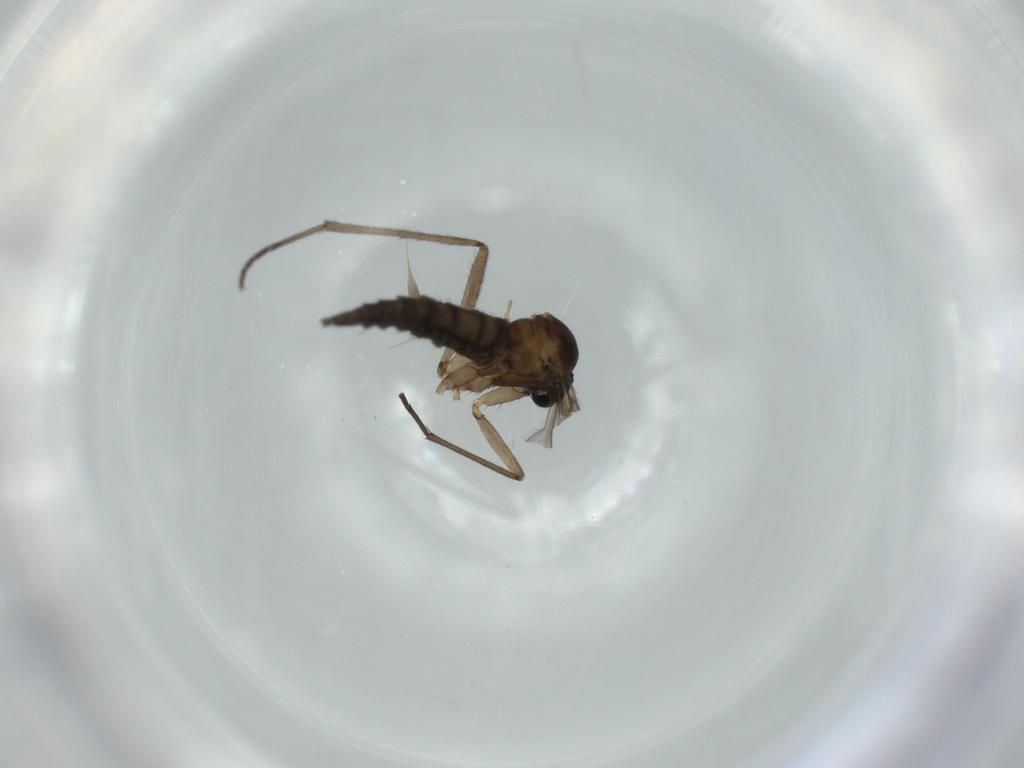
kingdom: Animalia
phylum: Arthropoda
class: Insecta
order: Diptera
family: Sciaridae
